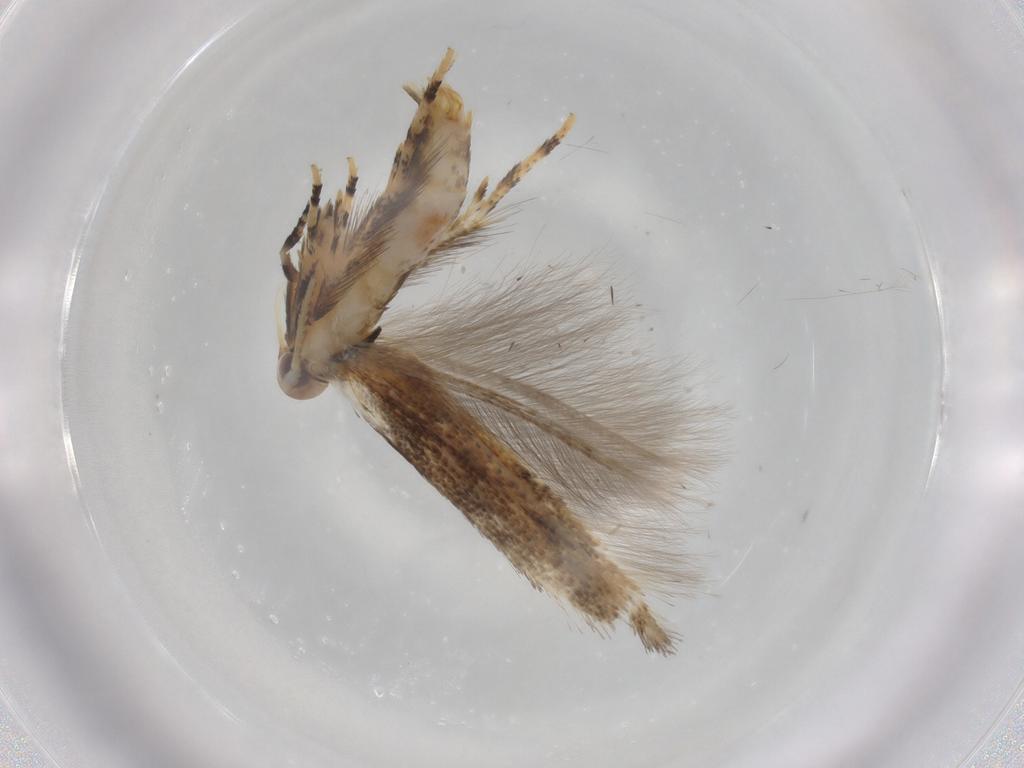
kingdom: Animalia
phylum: Arthropoda
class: Insecta
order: Lepidoptera
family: Cosmopterigidae
